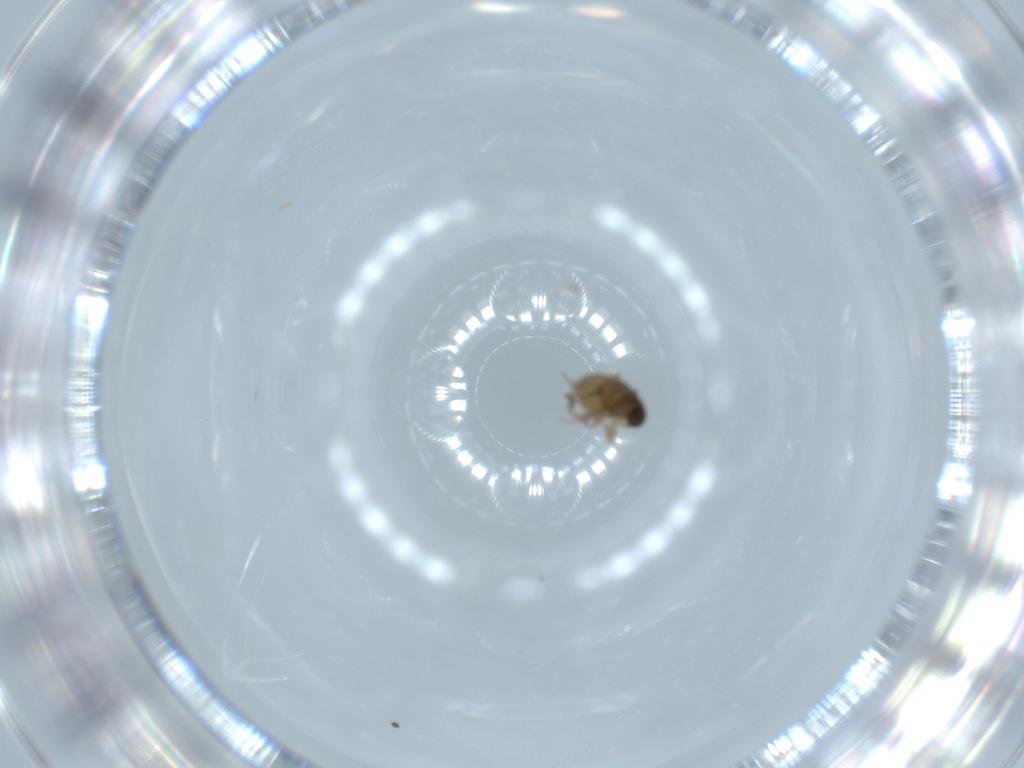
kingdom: Animalia
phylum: Arthropoda
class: Insecta
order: Diptera
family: Phoridae
